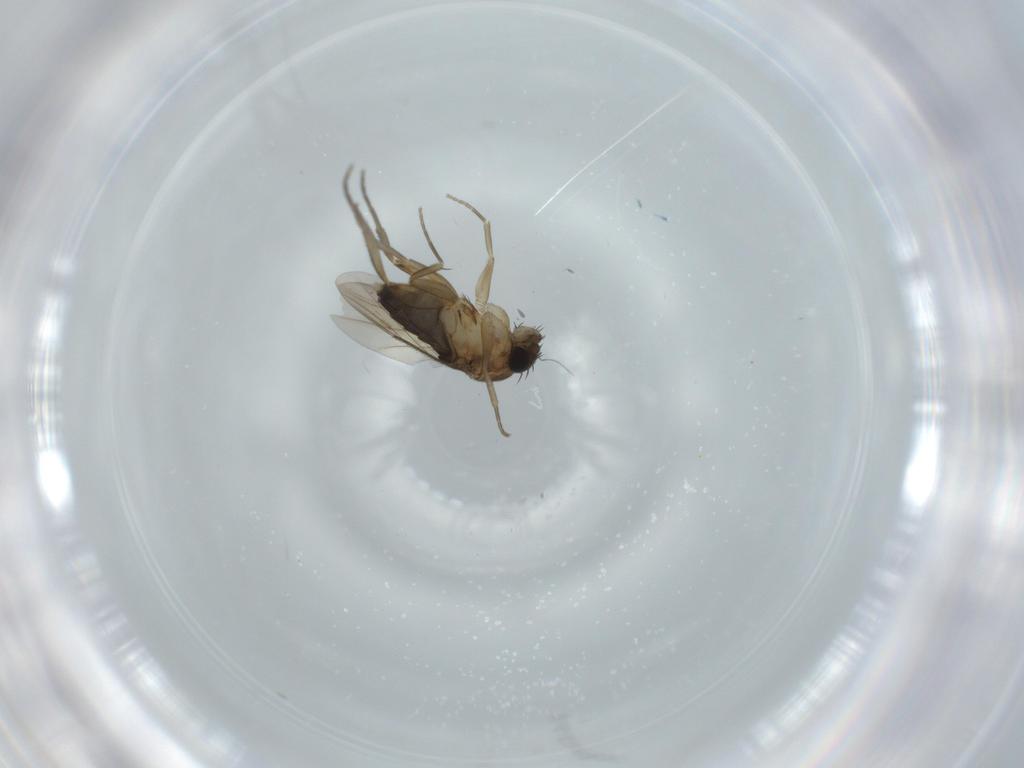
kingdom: Animalia
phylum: Arthropoda
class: Insecta
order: Diptera
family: Phoridae
